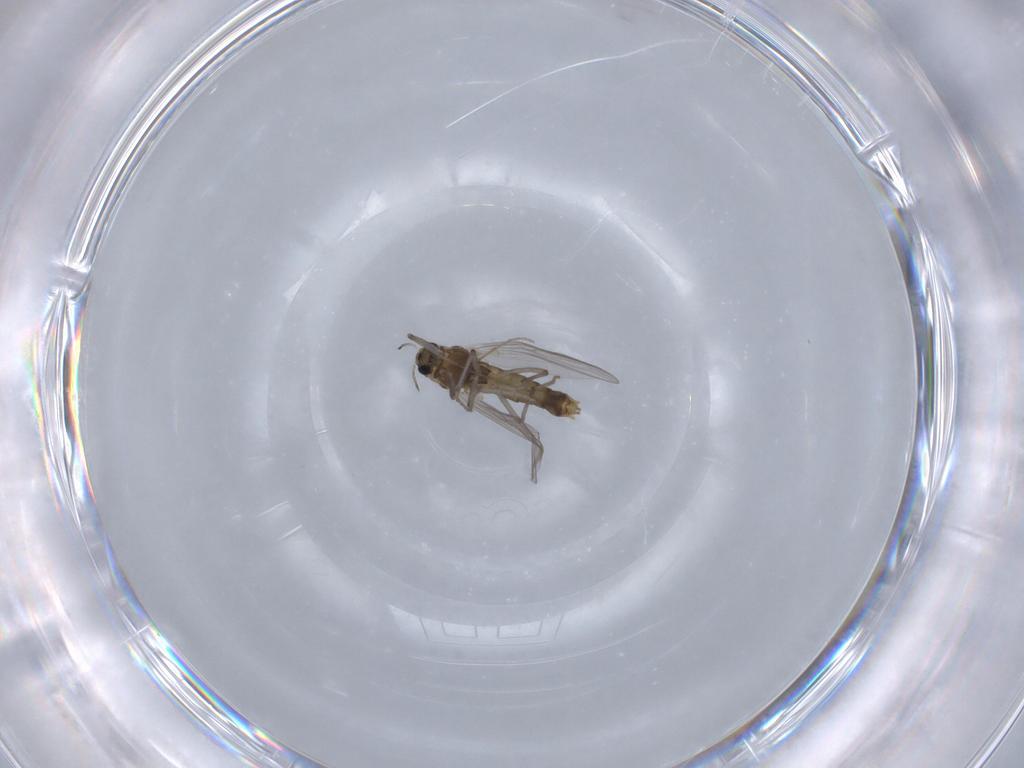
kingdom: Animalia
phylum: Arthropoda
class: Insecta
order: Diptera
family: Chironomidae
